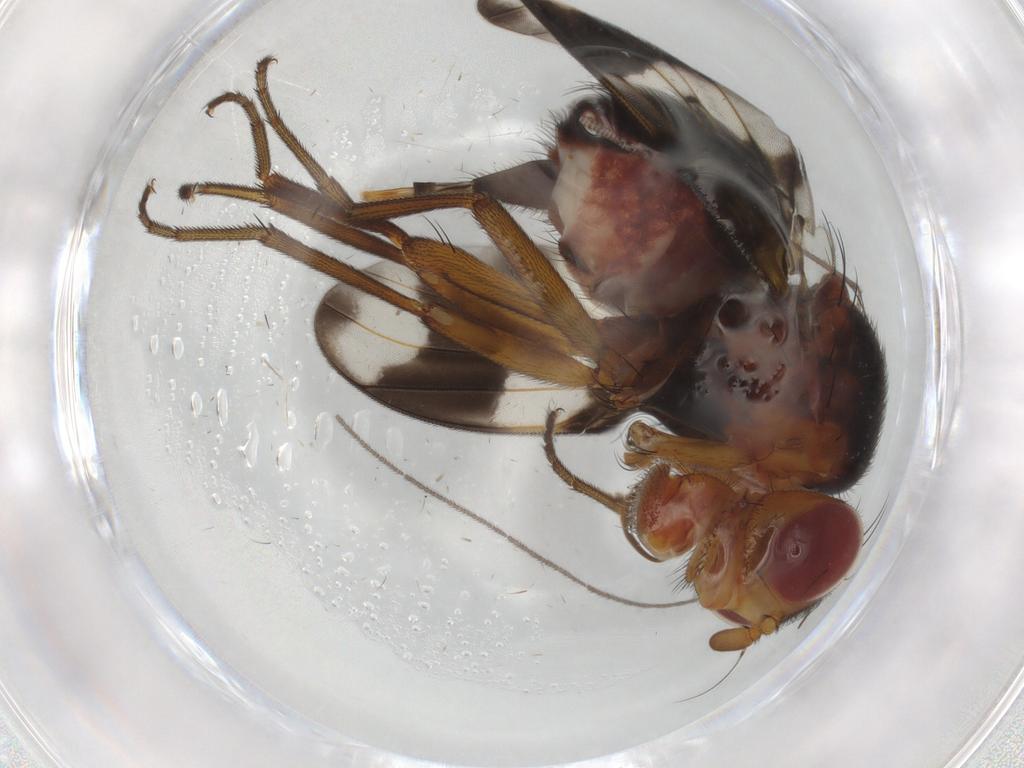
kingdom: Animalia
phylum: Arthropoda
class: Insecta
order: Diptera
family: Richardiidae
